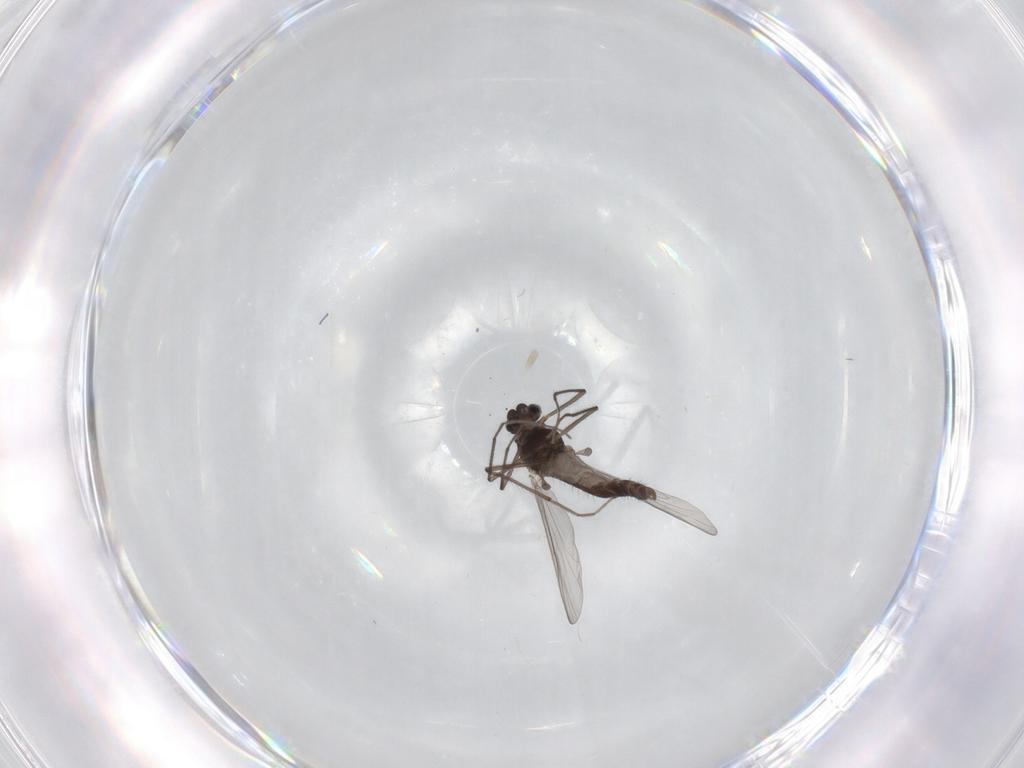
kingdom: Animalia
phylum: Arthropoda
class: Insecta
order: Diptera
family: Chironomidae
